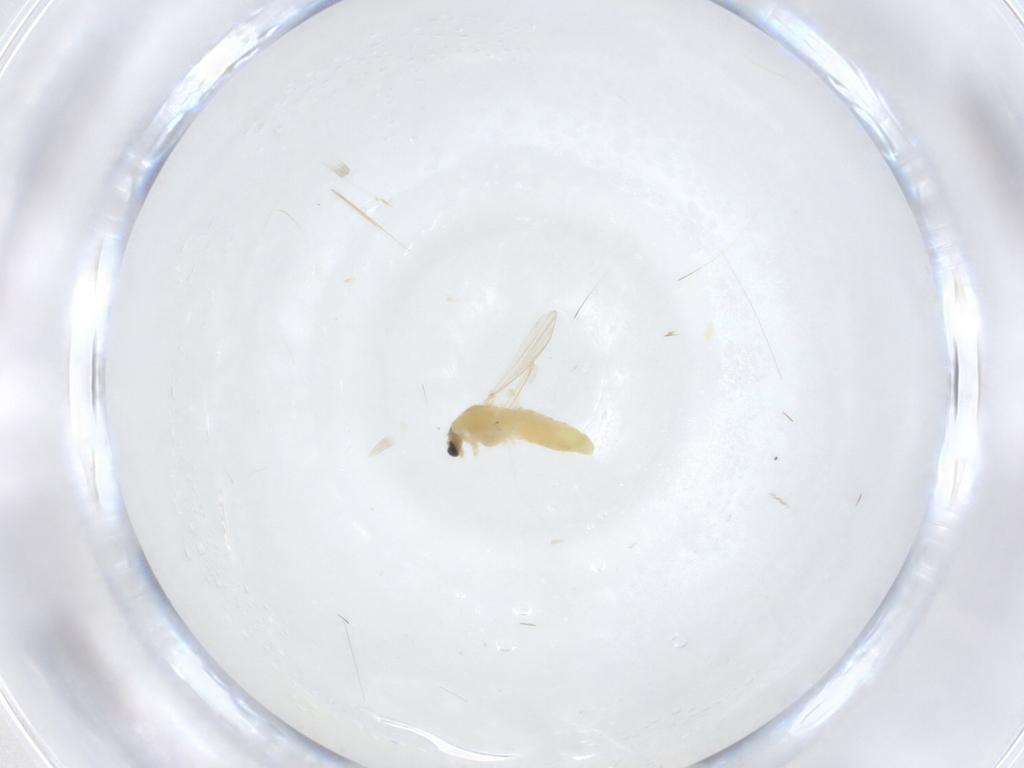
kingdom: Animalia
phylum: Arthropoda
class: Insecta
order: Diptera
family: Chironomidae
